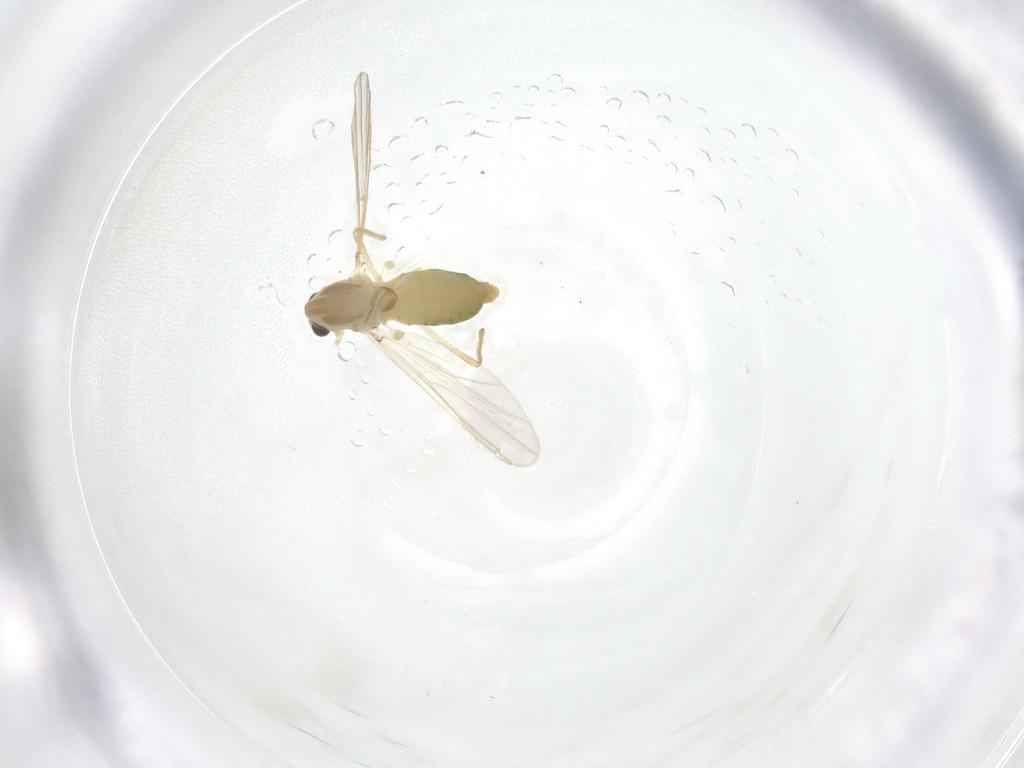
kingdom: Animalia
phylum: Arthropoda
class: Insecta
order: Diptera
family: Chironomidae
